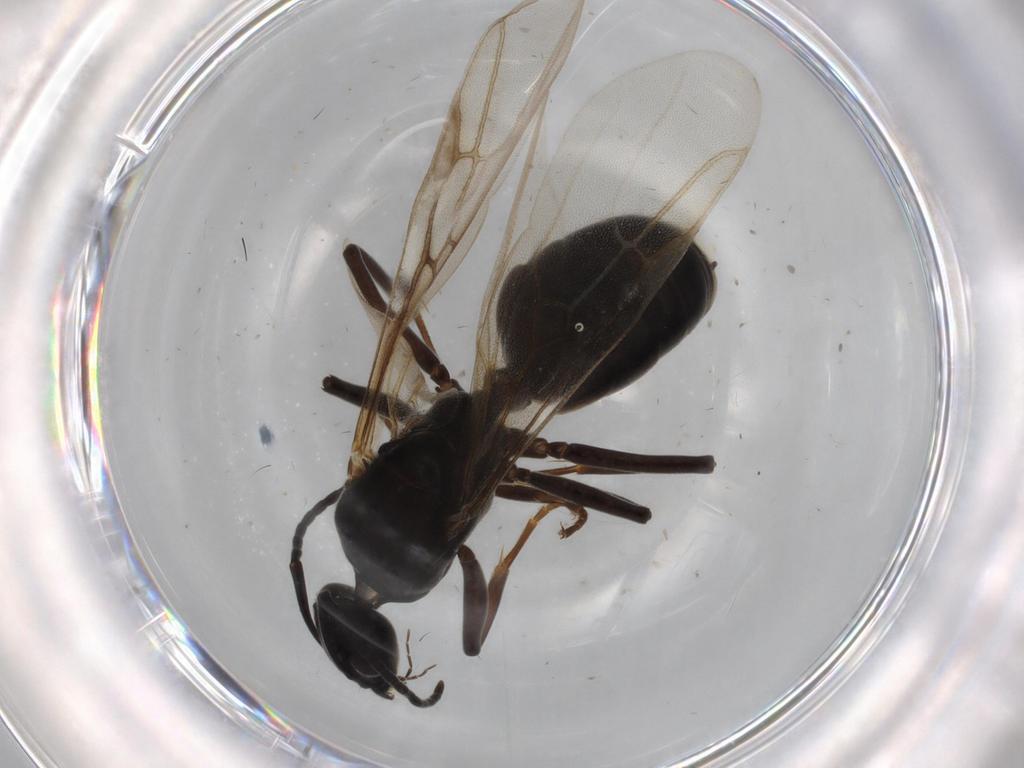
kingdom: Animalia
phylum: Arthropoda
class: Insecta
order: Hymenoptera
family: Formicidae
